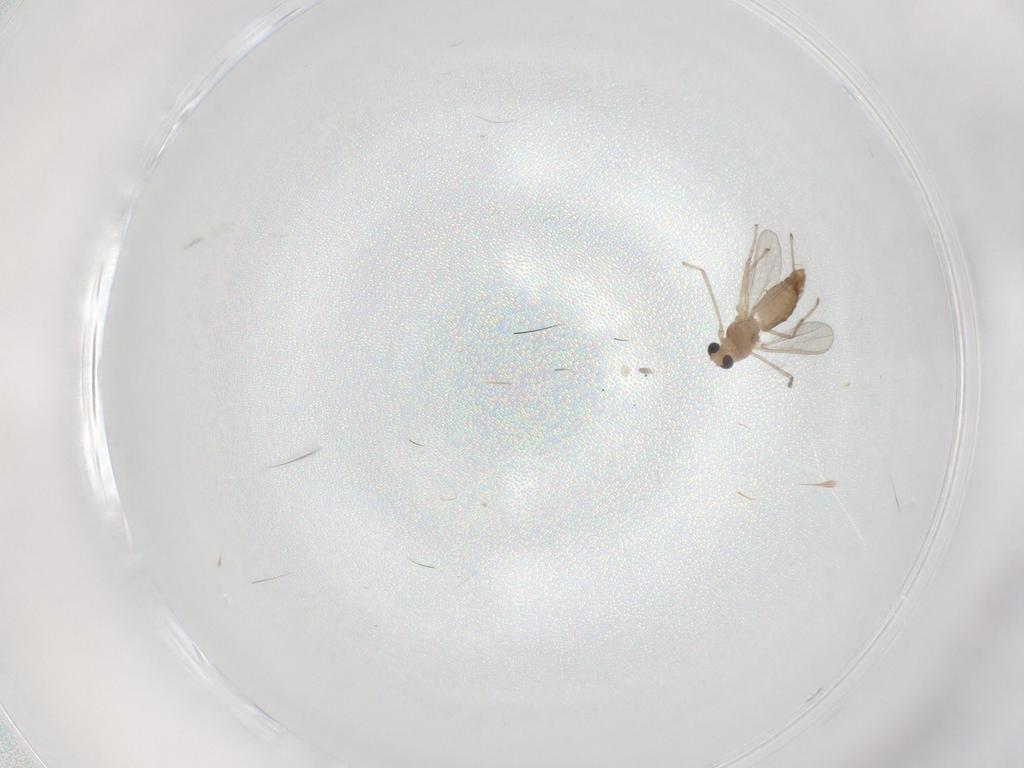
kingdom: Animalia
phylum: Arthropoda
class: Insecta
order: Diptera
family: Chironomidae
